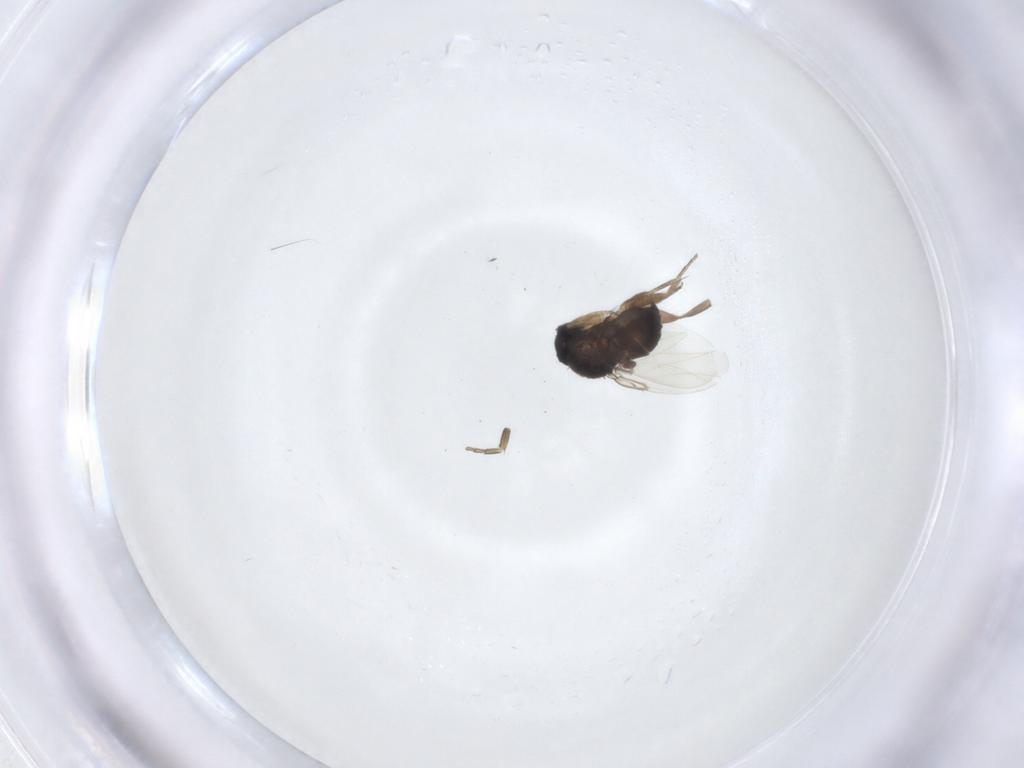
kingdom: Animalia
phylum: Arthropoda
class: Insecta
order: Diptera
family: Phoridae
